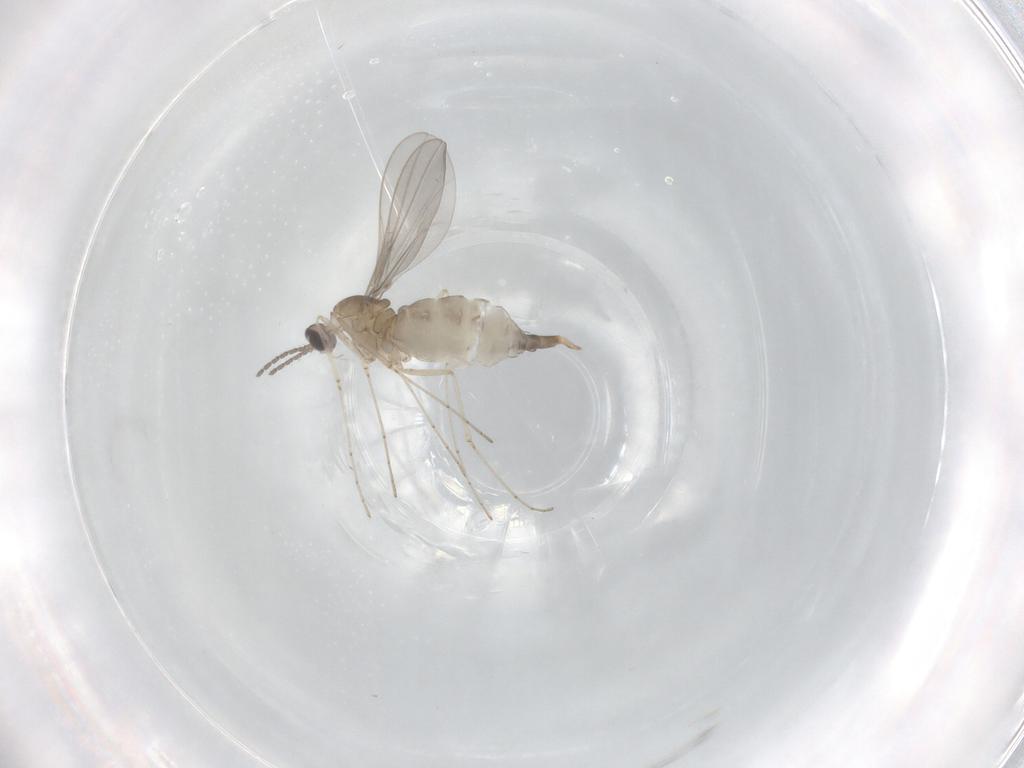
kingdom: Animalia
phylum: Arthropoda
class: Insecta
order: Diptera
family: Cecidomyiidae
